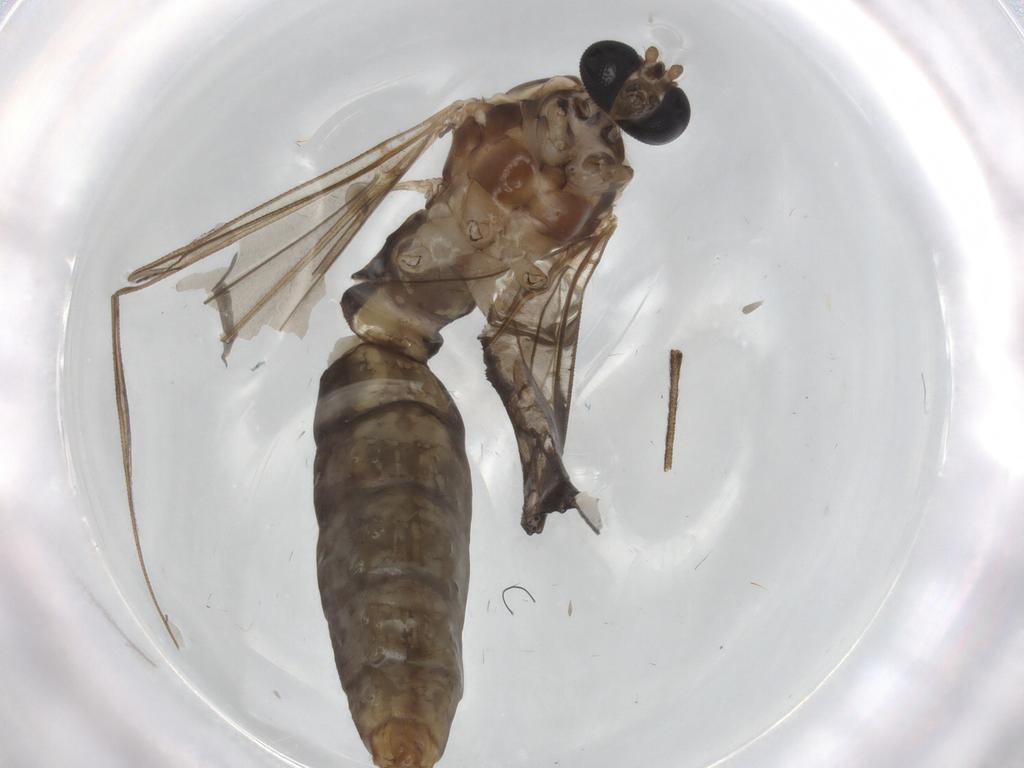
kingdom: Animalia
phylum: Arthropoda
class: Insecta
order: Diptera
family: Limoniidae
